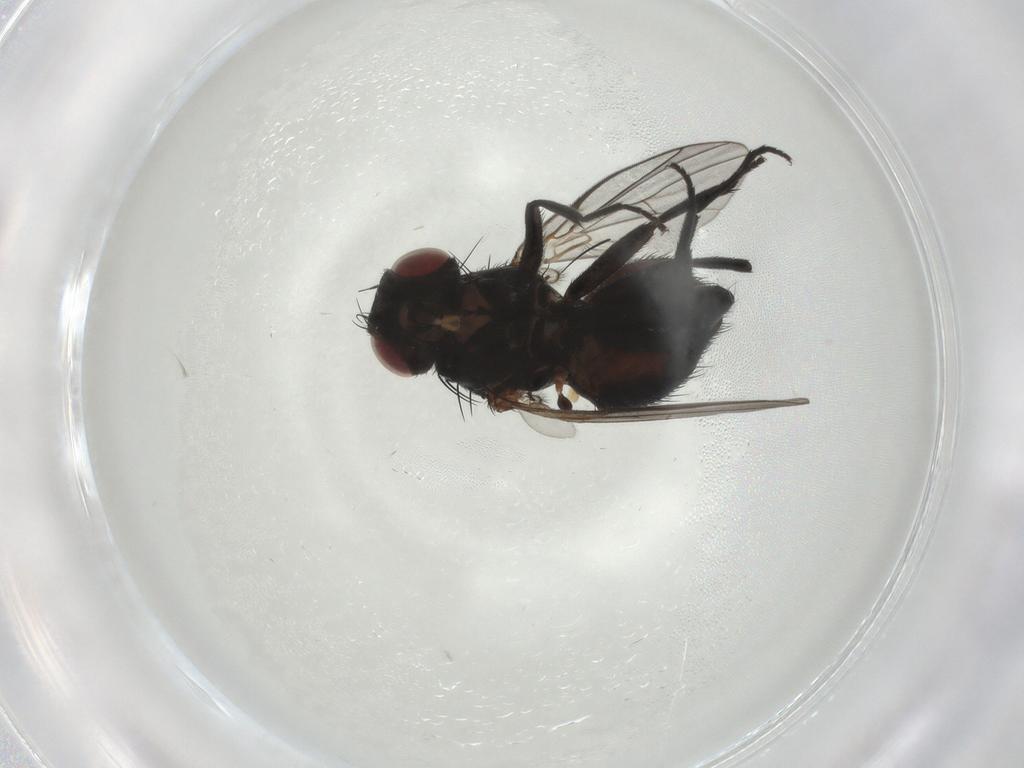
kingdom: Animalia
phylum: Arthropoda
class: Insecta
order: Diptera
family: Agromyzidae
